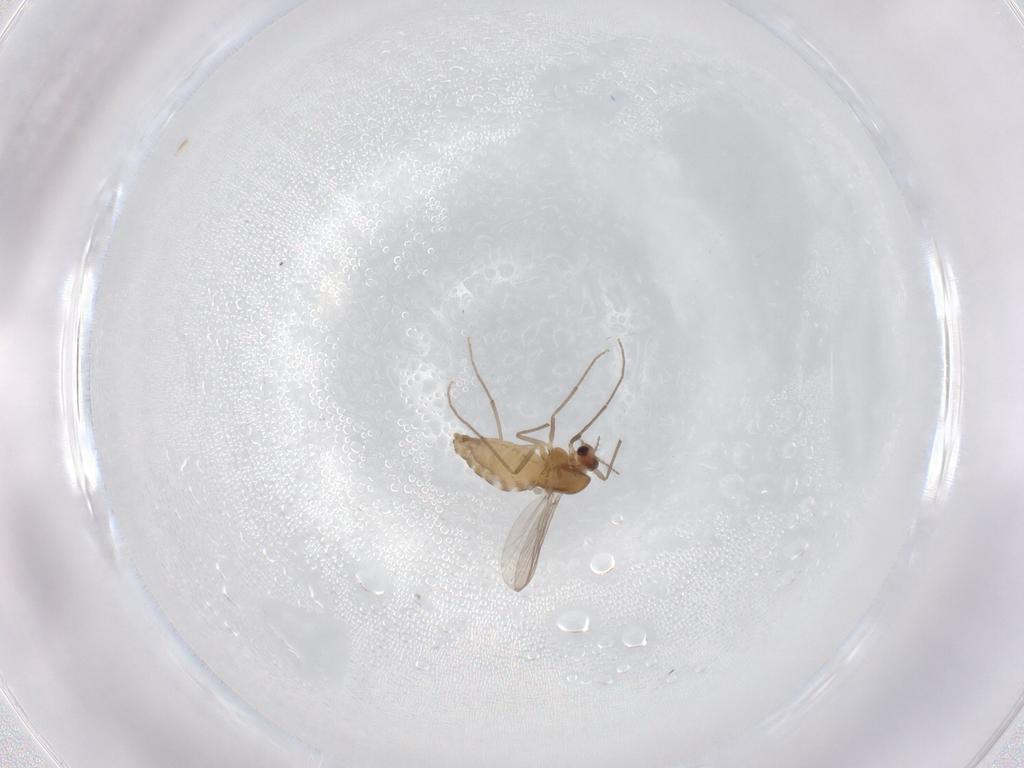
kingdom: Animalia
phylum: Arthropoda
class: Insecta
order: Diptera
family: Chironomidae
